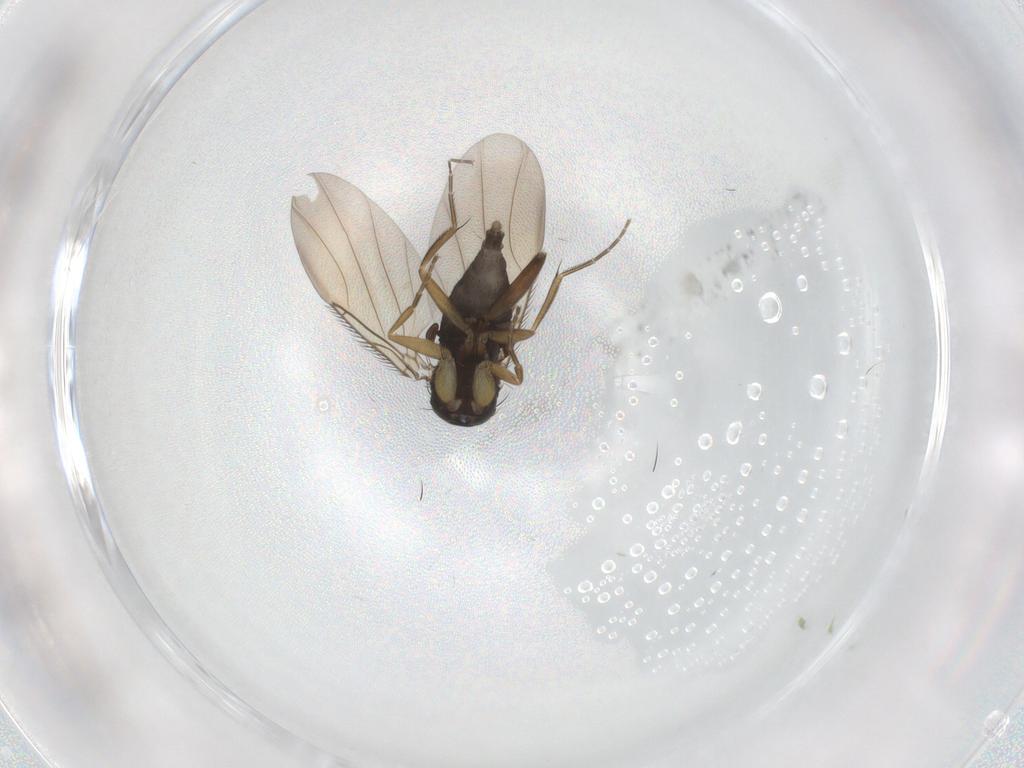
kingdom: Animalia
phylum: Arthropoda
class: Insecta
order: Diptera
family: Phoridae
